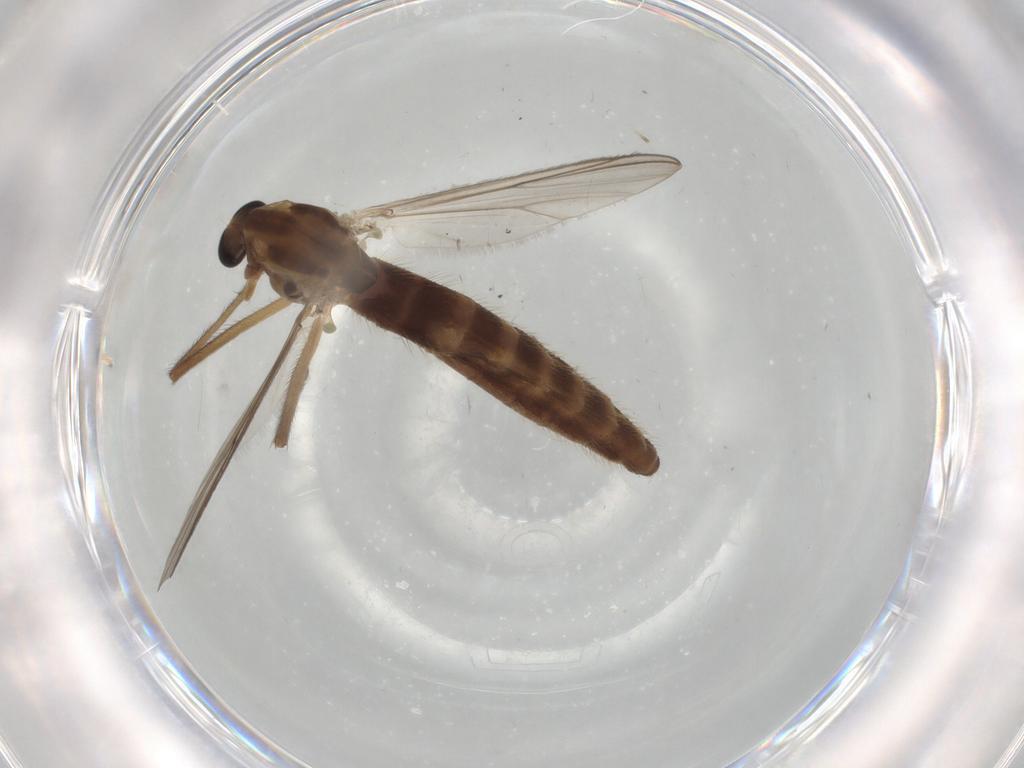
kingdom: Animalia
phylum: Arthropoda
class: Insecta
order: Diptera
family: Chironomidae
